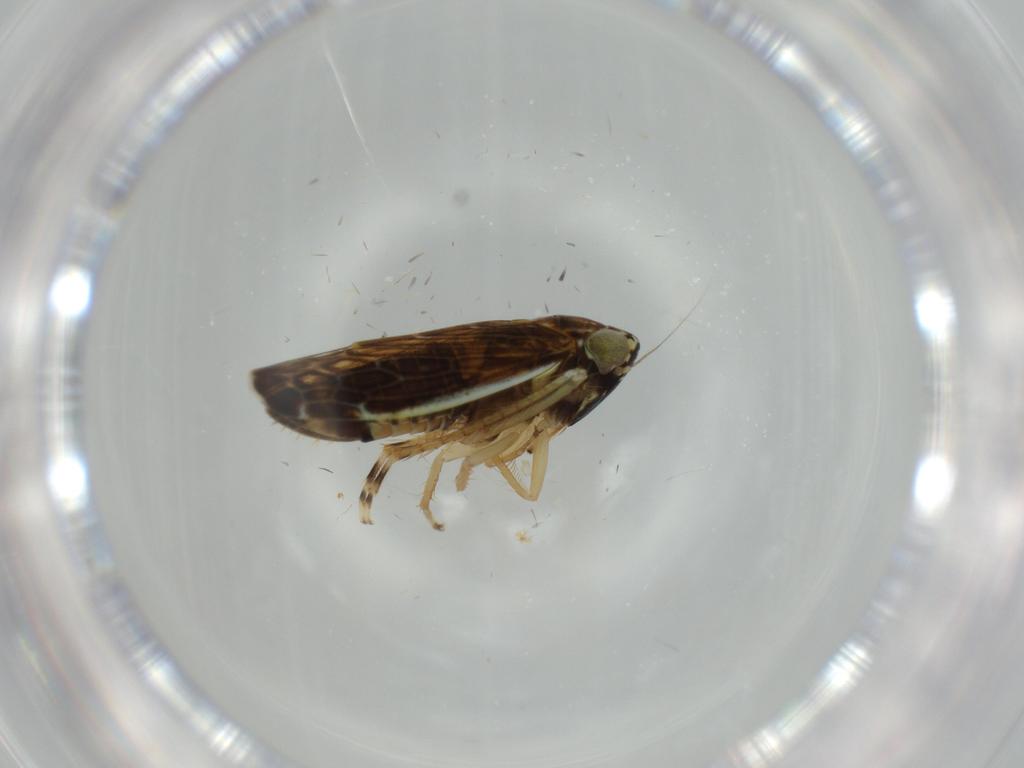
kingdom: Animalia
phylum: Arthropoda
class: Insecta
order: Hemiptera
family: Cicadellidae
